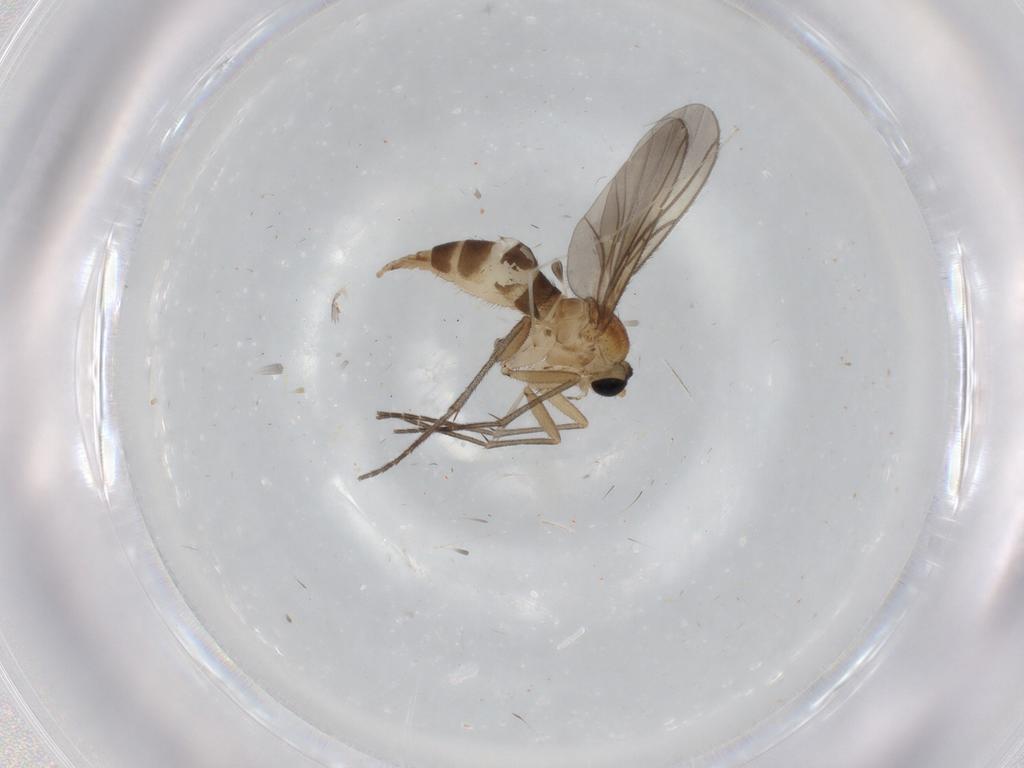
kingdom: Animalia
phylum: Arthropoda
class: Insecta
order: Diptera
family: Sciaridae
